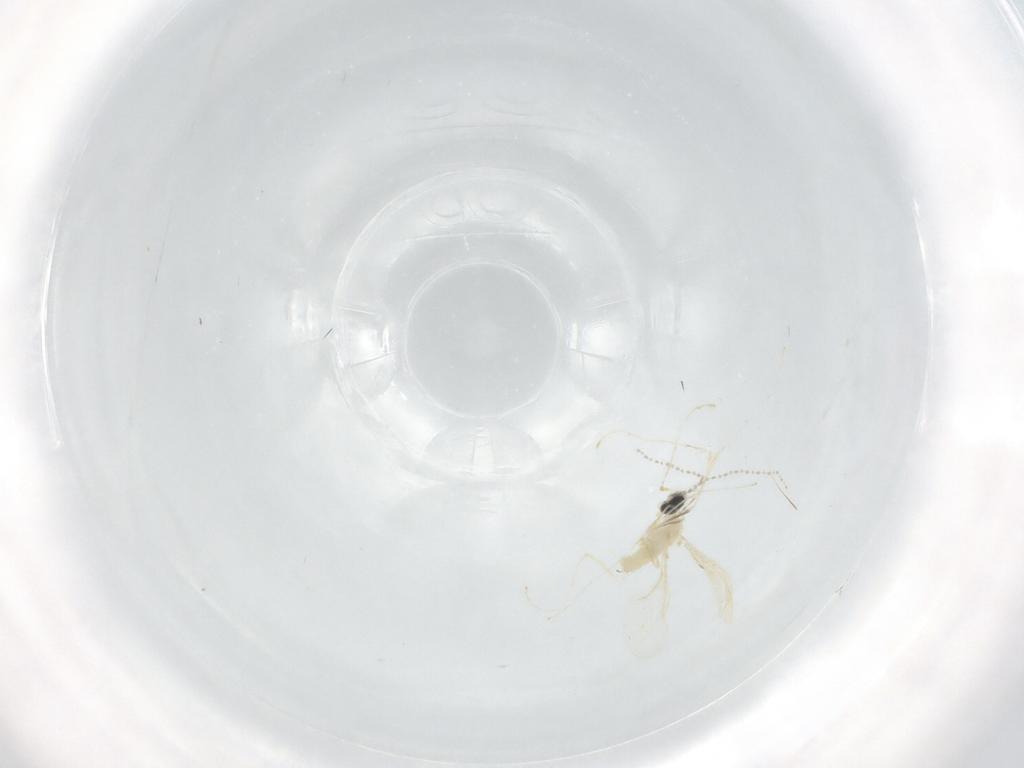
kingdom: Animalia
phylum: Arthropoda
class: Insecta
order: Diptera
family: Cecidomyiidae
